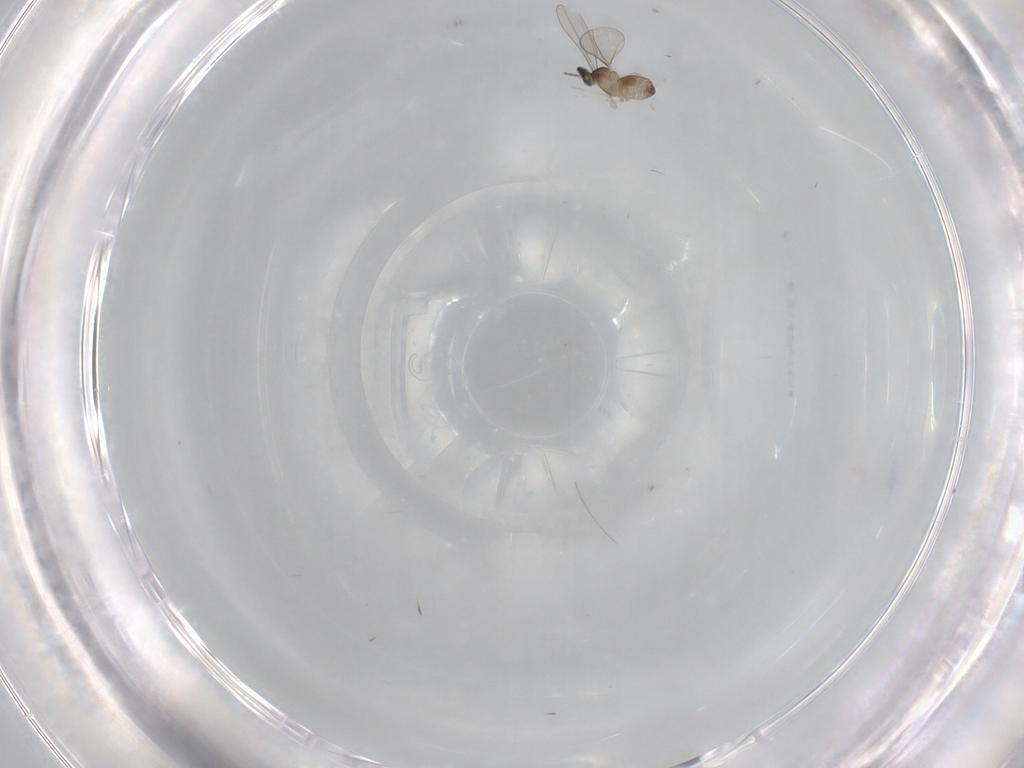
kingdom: Animalia
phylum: Arthropoda
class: Insecta
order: Diptera
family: Cecidomyiidae
